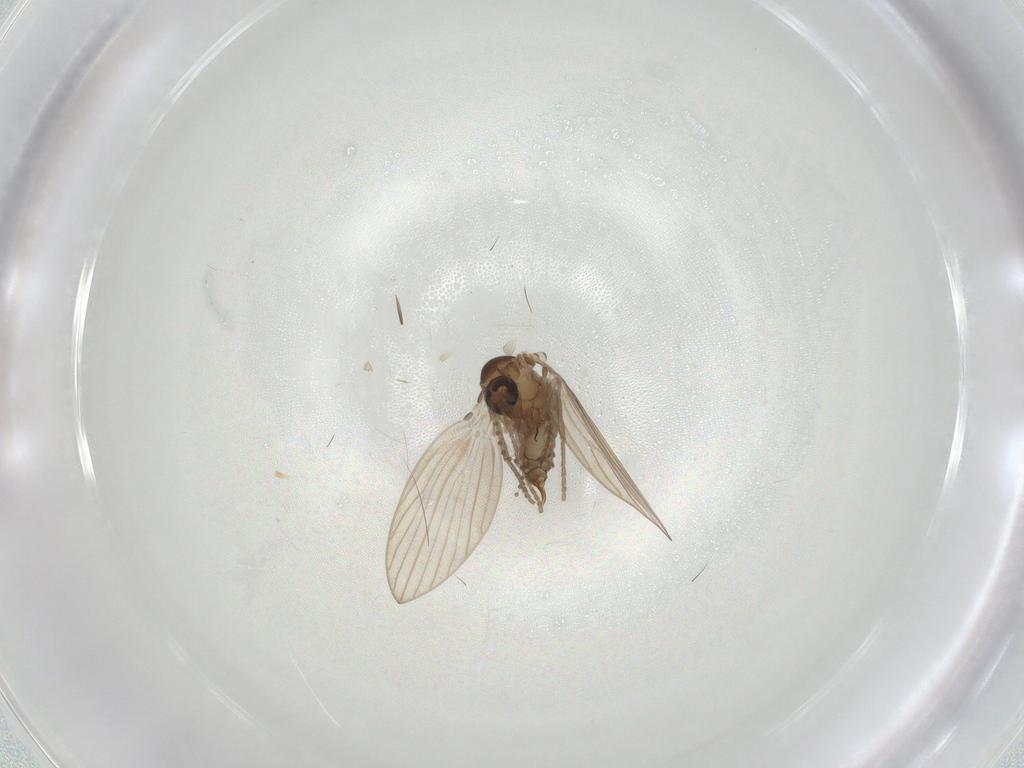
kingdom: Animalia
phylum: Arthropoda
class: Insecta
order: Diptera
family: Psychodidae
